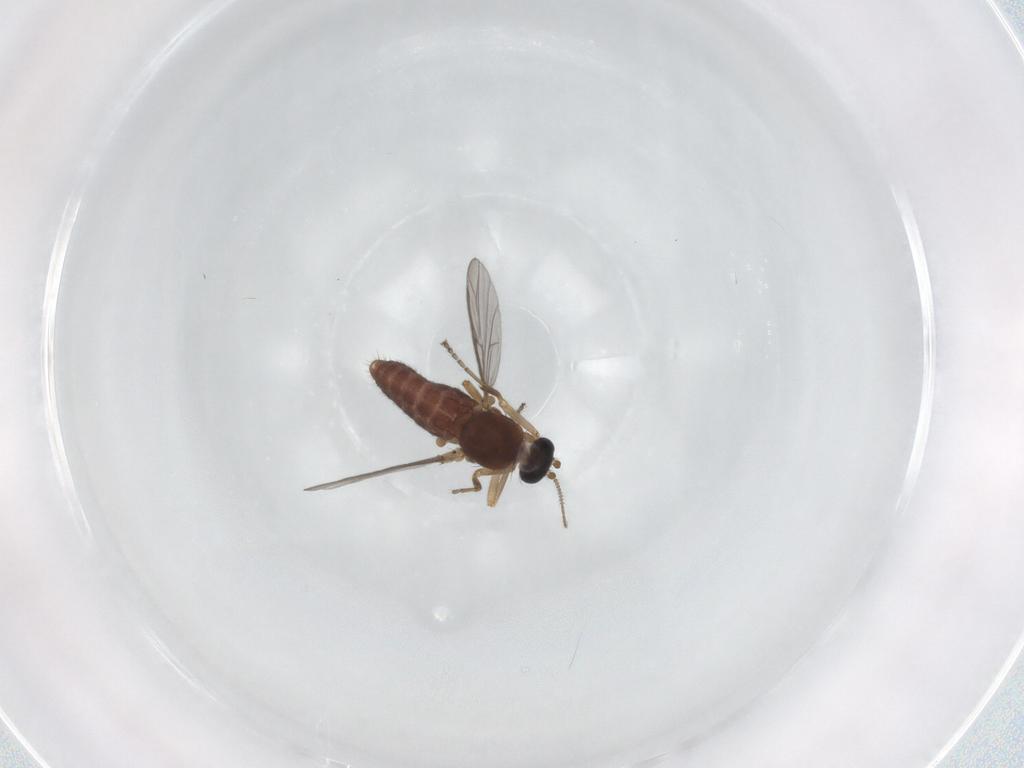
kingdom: Animalia
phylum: Arthropoda
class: Insecta
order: Diptera
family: Ceratopogonidae
